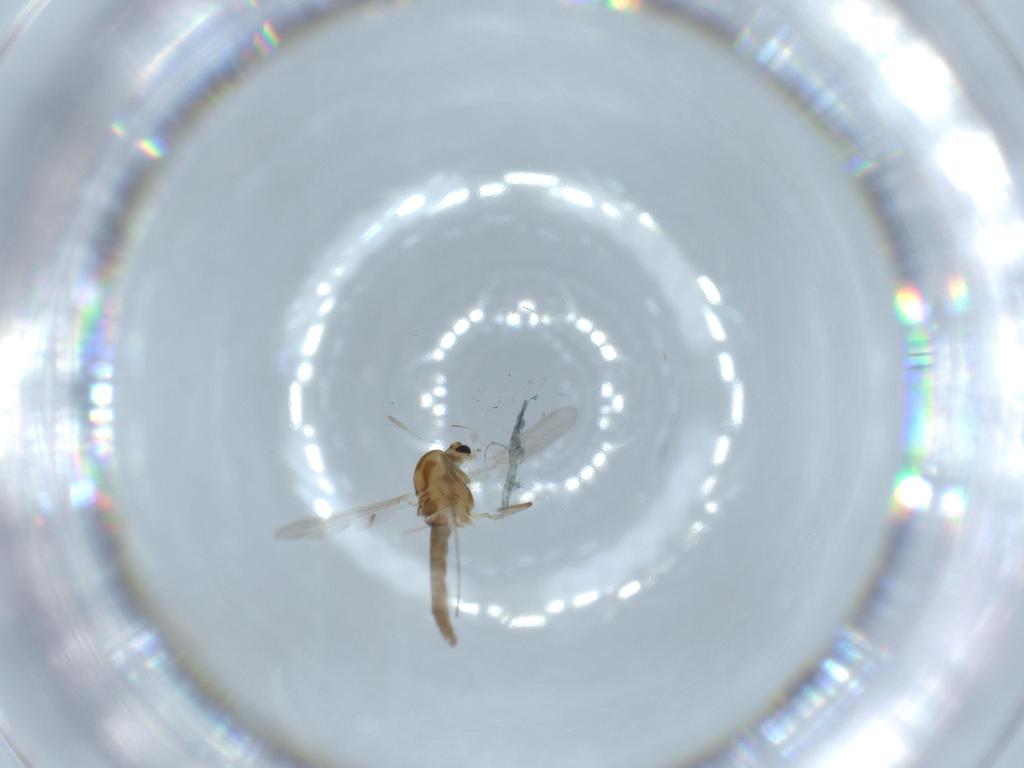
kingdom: Animalia
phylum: Arthropoda
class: Insecta
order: Diptera
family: Chironomidae
